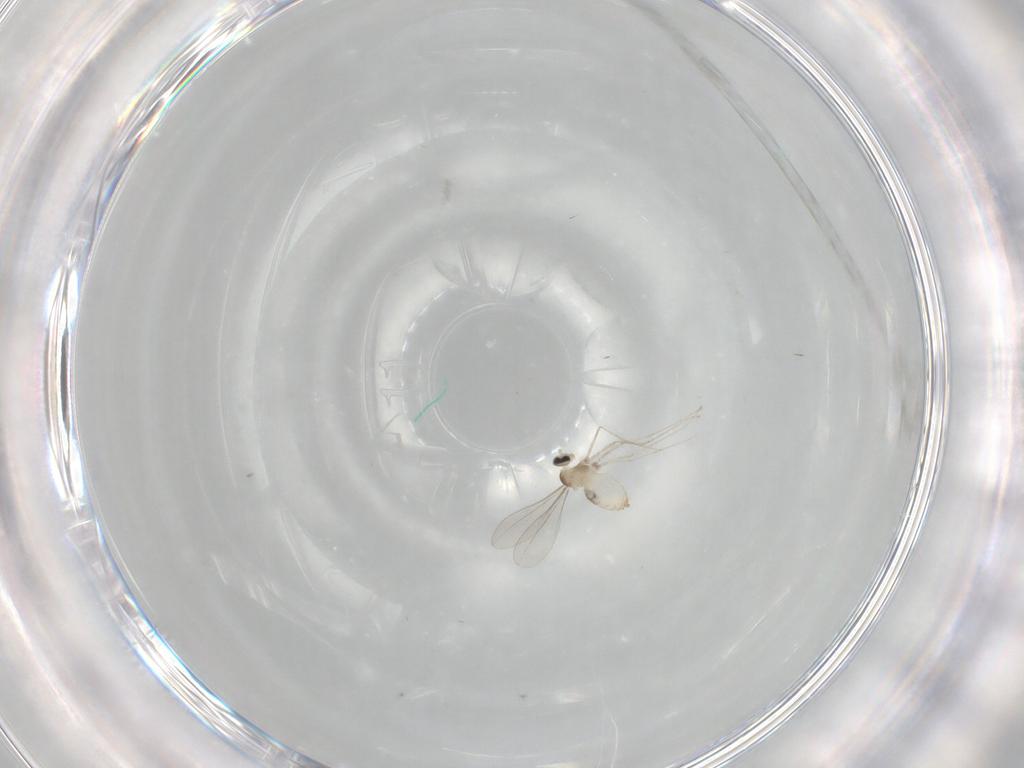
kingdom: Animalia
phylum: Arthropoda
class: Insecta
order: Diptera
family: Cecidomyiidae
